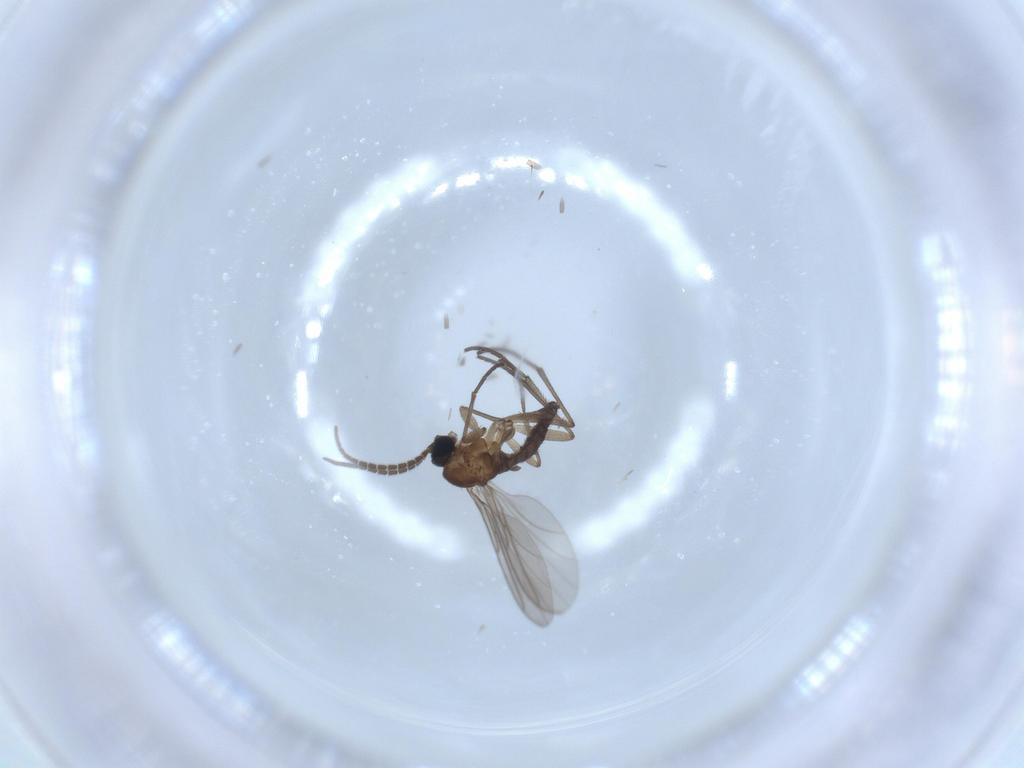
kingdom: Animalia
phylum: Arthropoda
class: Insecta
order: Diptera
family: Sciaridae
